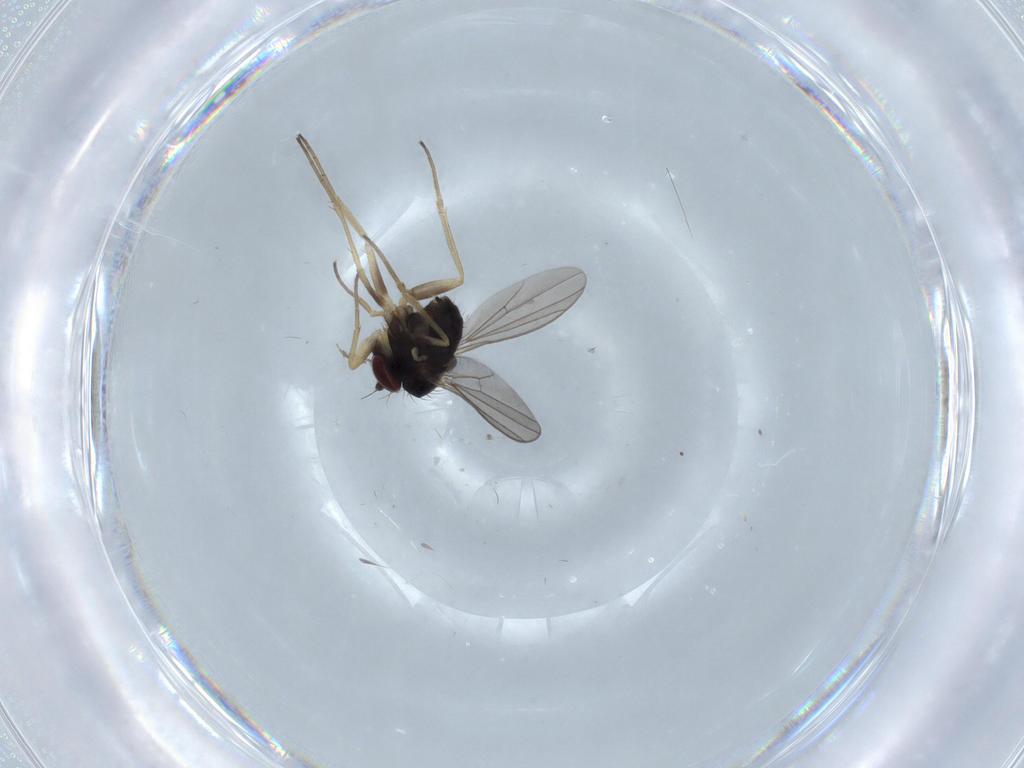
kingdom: Animalia
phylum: Arthropoda
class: Insecta
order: Diptera
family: Dolichopodidae
